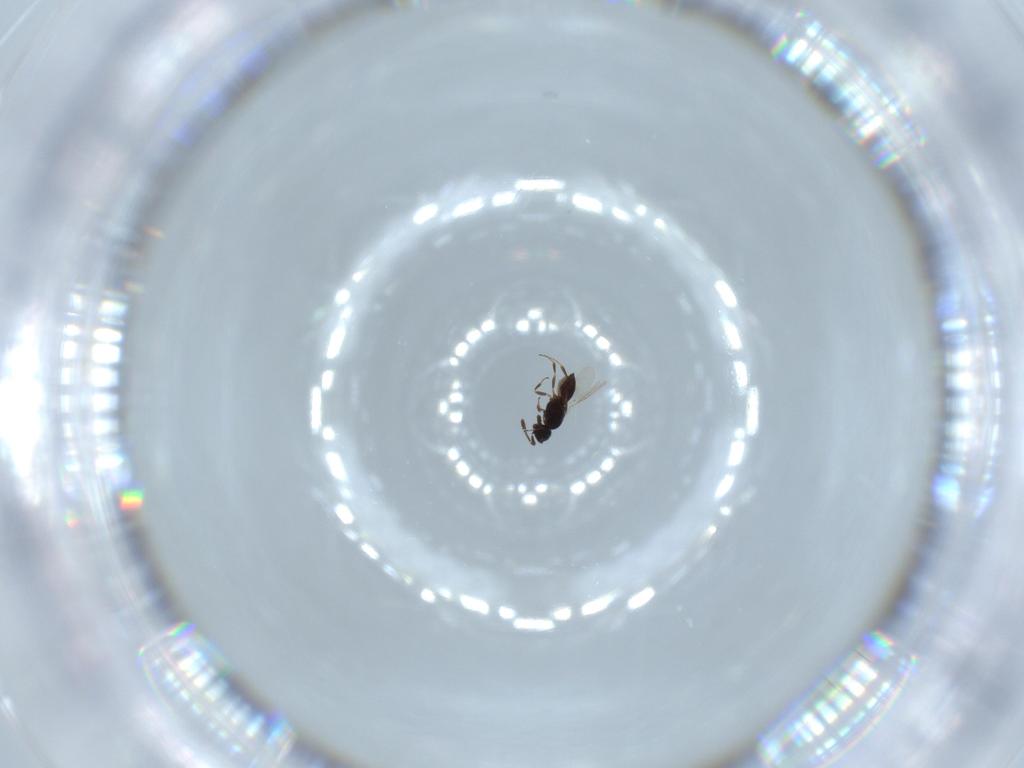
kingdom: Animalia
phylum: Arthropoda
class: Insecta
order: Hymenoptera
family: Scelionidae
